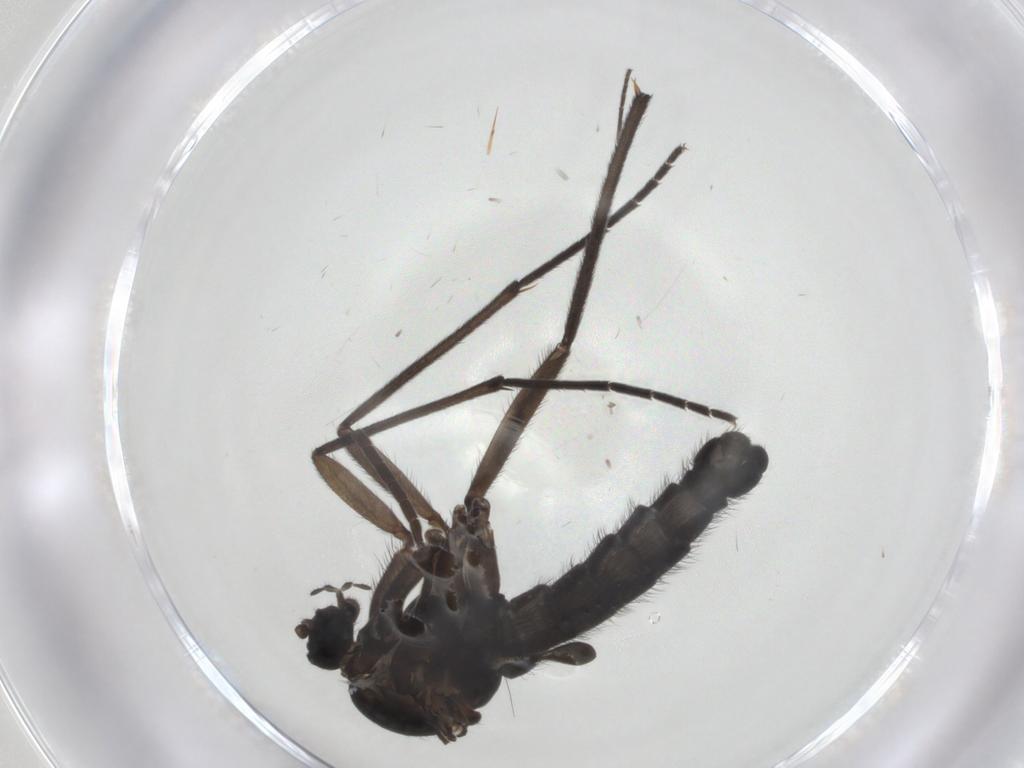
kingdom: Animalia
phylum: Arthropoda
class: Insecta
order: Diptera
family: Sciaridae
